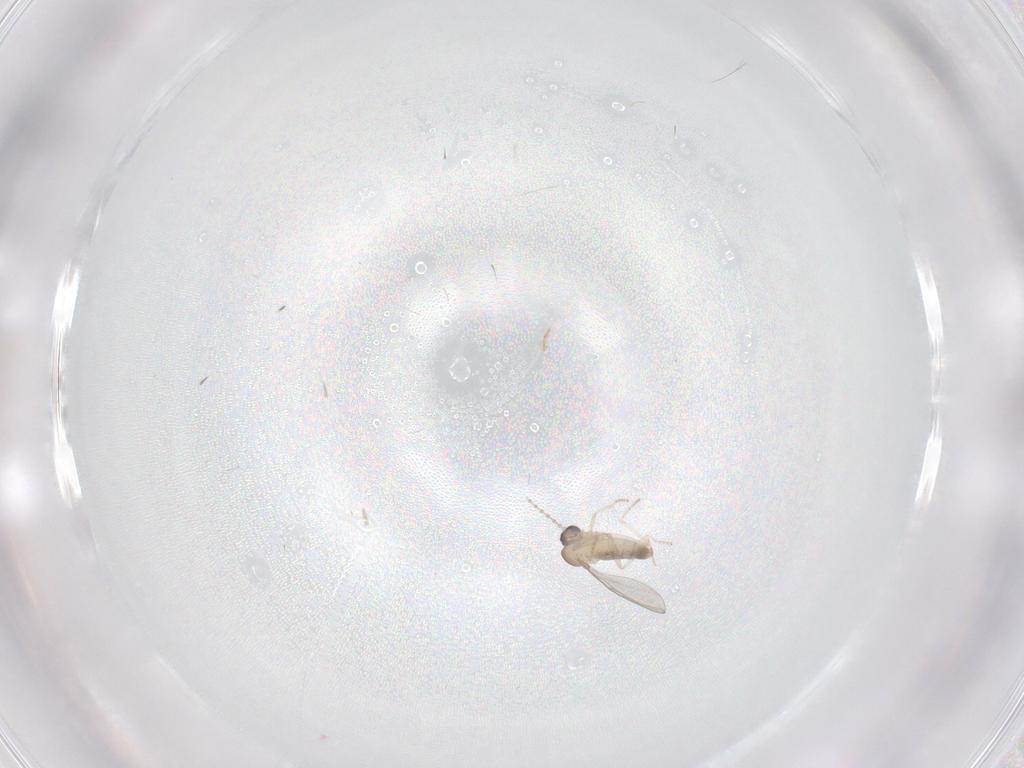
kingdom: Animalia
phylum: Arthropoda
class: Insecta
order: Diptera
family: Cecidomyiidae
